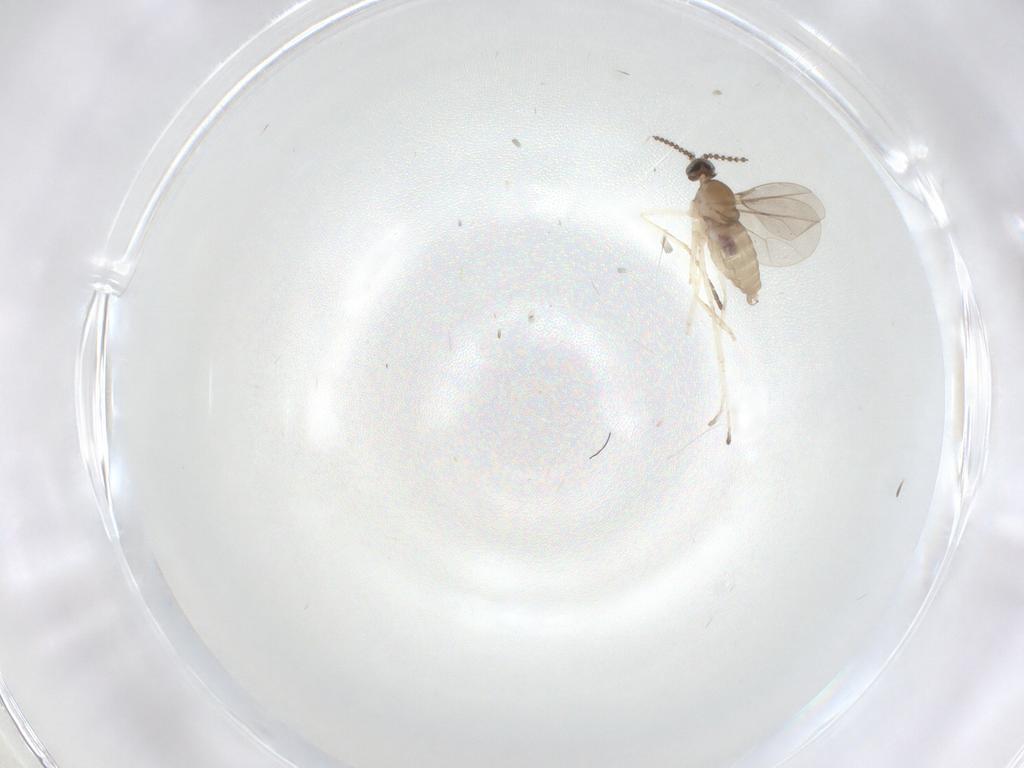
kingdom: Animalia
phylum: Arthropoda
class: Insecta
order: Diptera
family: Cecidomyiidae
